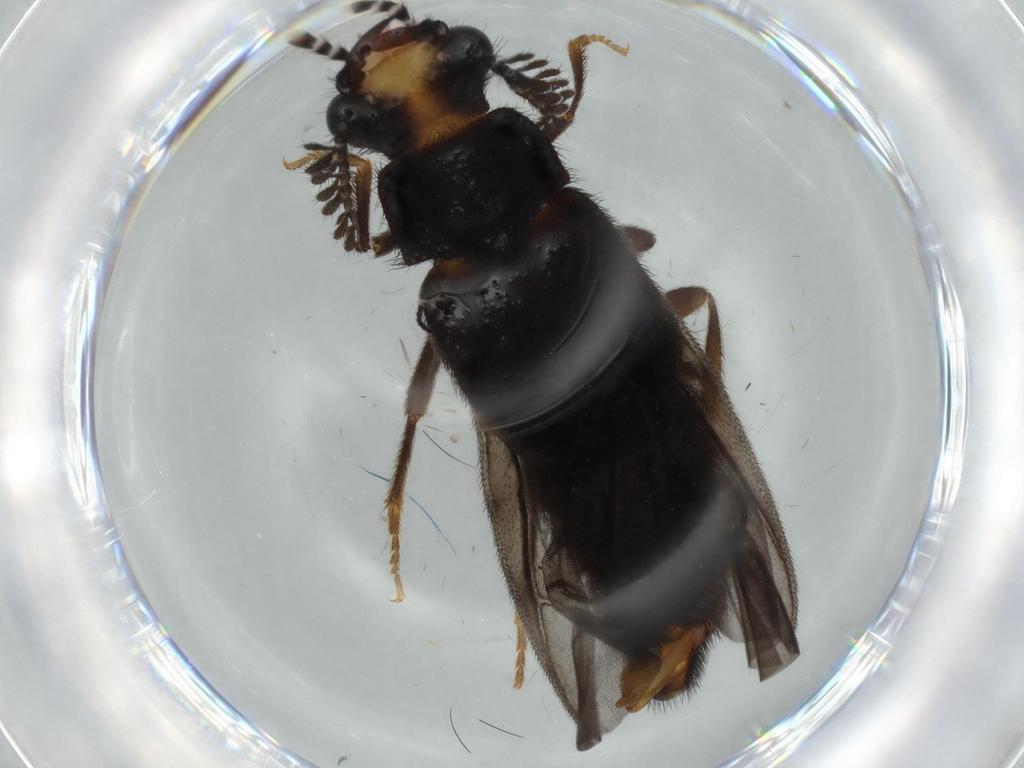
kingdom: Animalia
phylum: Arthropoda
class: Insecta
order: Coleoptera
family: Phengodidae
